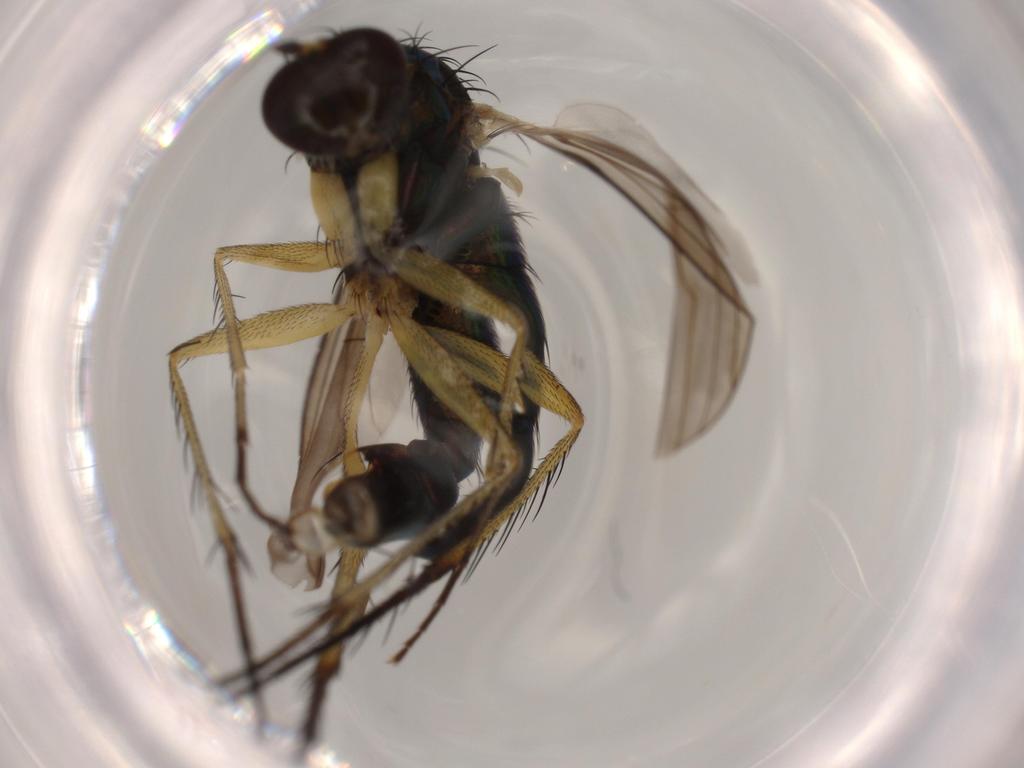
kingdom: Animalia
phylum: Arthropoda
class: Insecta
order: Diptera
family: Dolichopodidae
